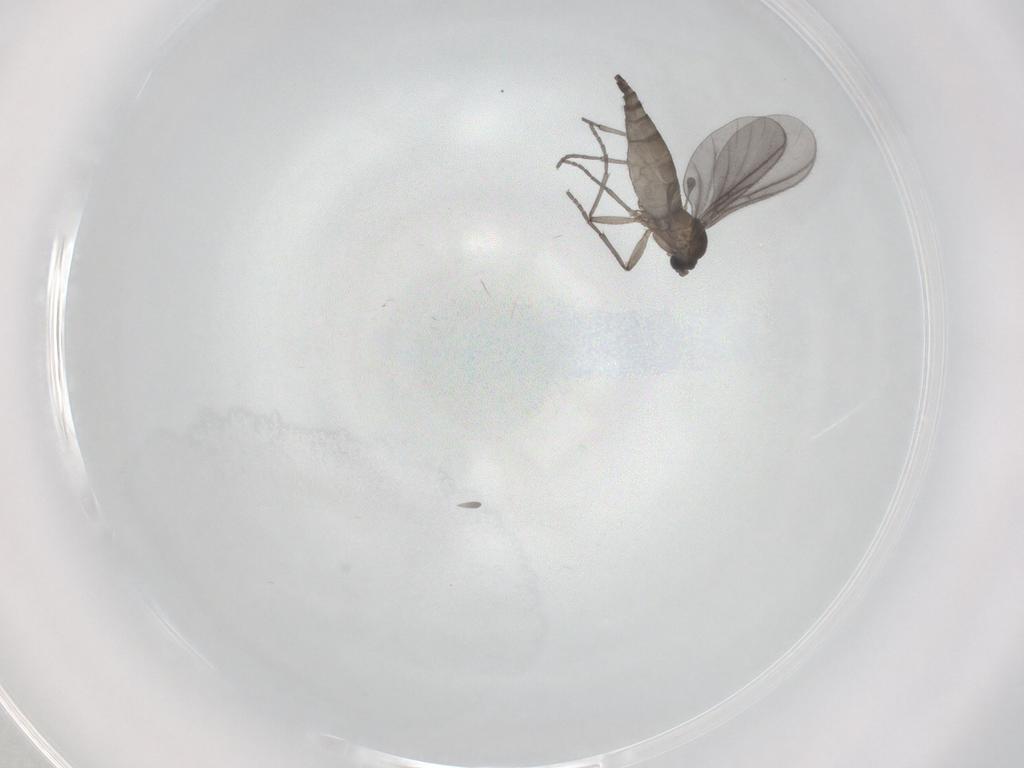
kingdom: Animalia
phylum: Arthropoda
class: Insecta
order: Diptera
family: Sciaridae
